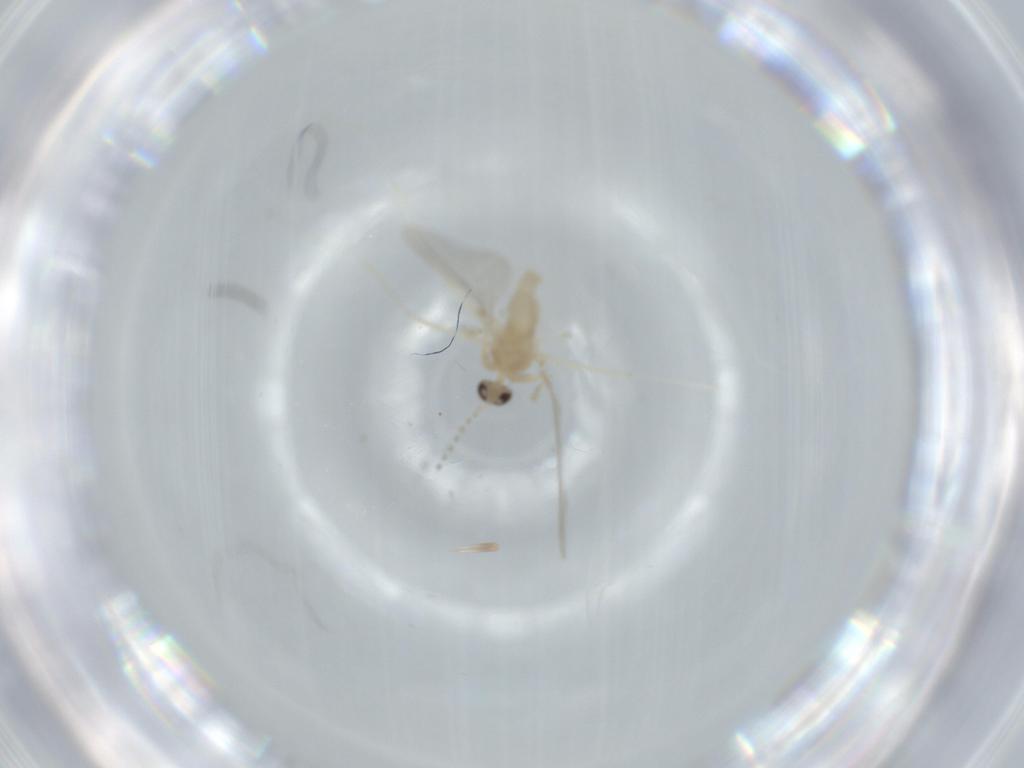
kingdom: Animalia
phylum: Arthropoda
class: Insecta
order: Diptera
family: Cecidomyiidae
